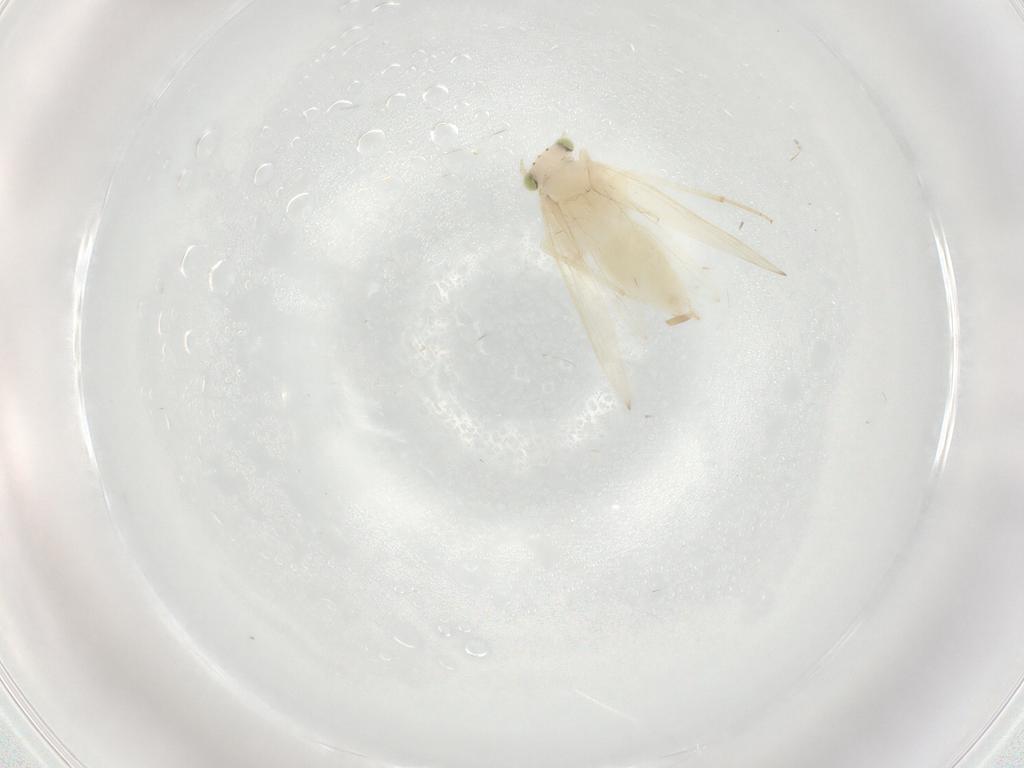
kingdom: Animalia
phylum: Arthropoda
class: Insecta
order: Psocodea
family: Lepidopsocidae
